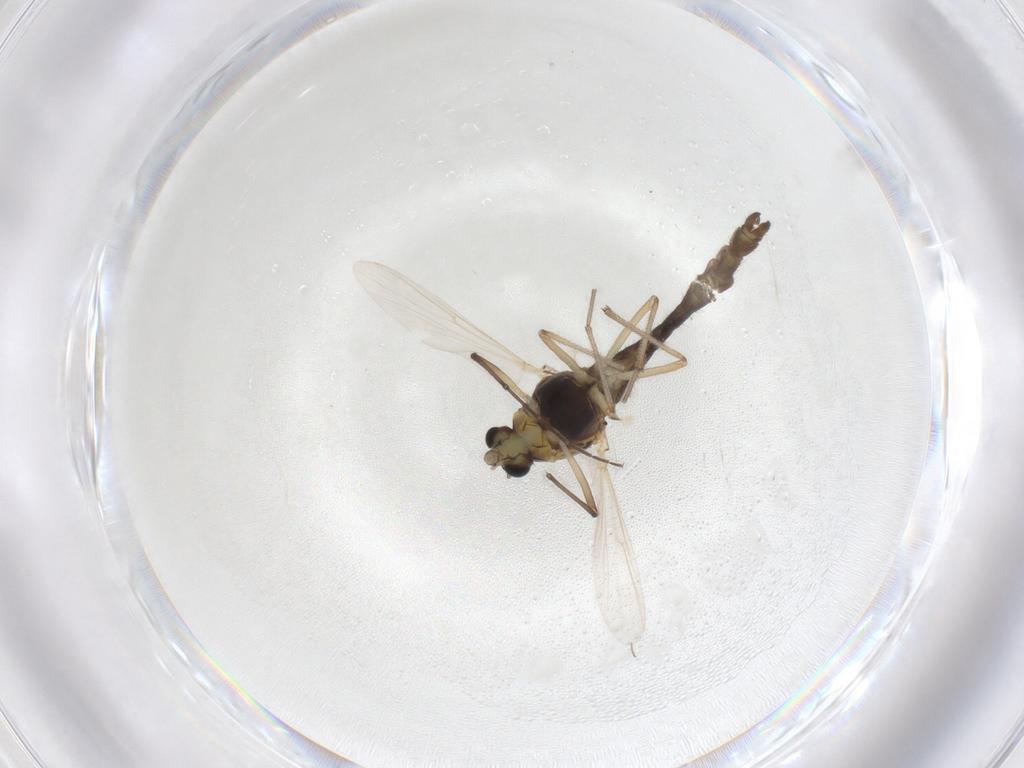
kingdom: Animalia
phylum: Arthropoda
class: Insecta
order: Diptera
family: Chironomidae
